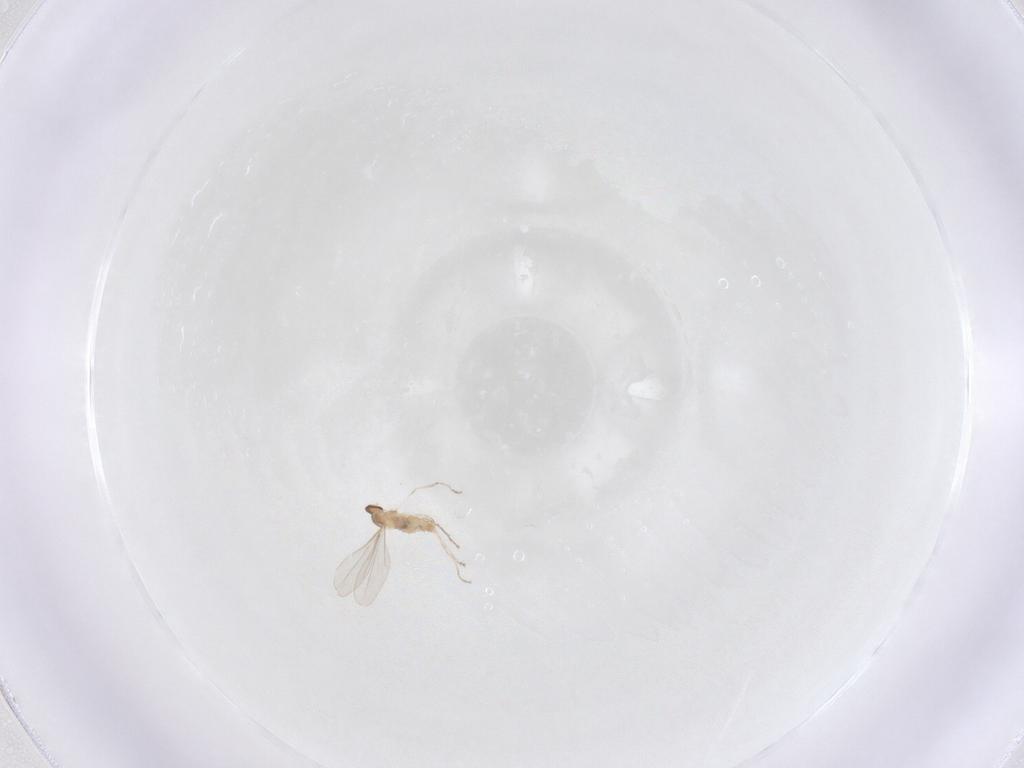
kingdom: Animalia
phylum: Arthropoda
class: Insecta
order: Diptera
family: Cecidomyiidae
